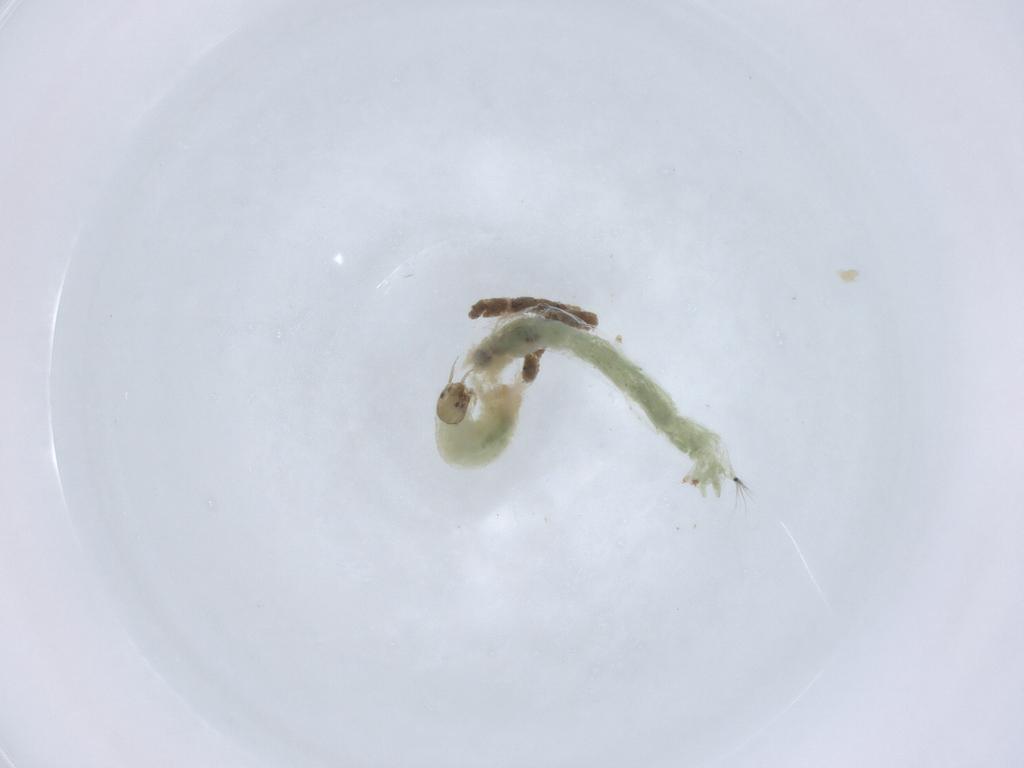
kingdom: Animalia
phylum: Arthropoda
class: Insecta
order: Diptera
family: Chironomidae
